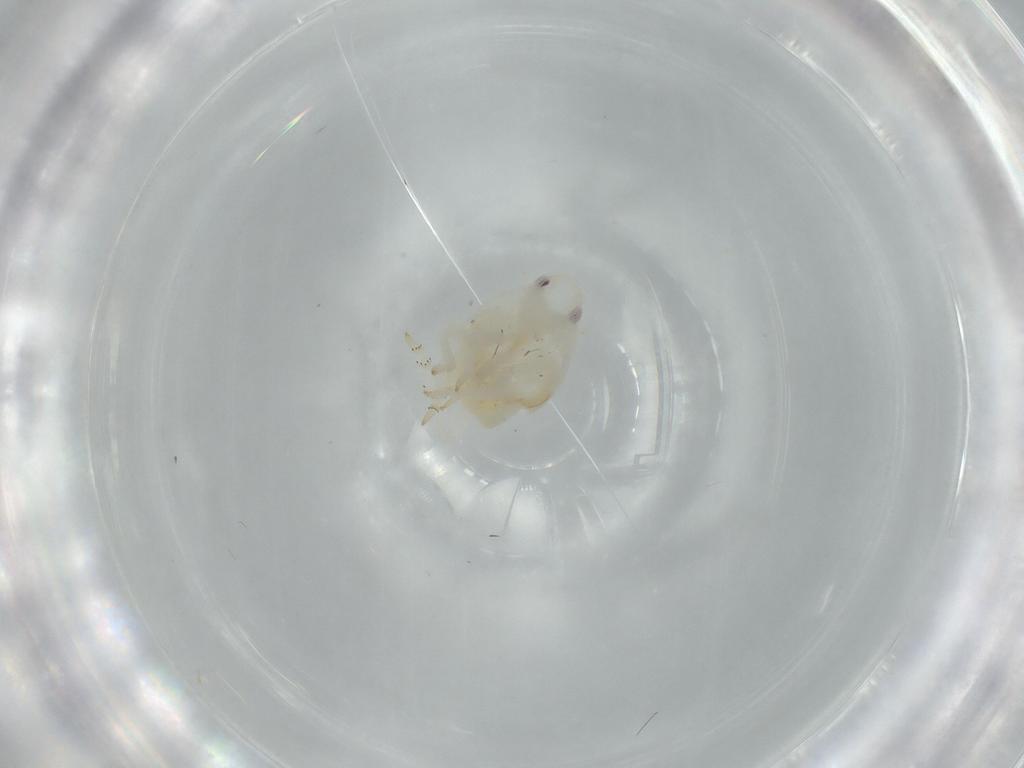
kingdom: Animalia
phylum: Arthropoda
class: Insecta
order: Hemiptera
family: Flatidae
